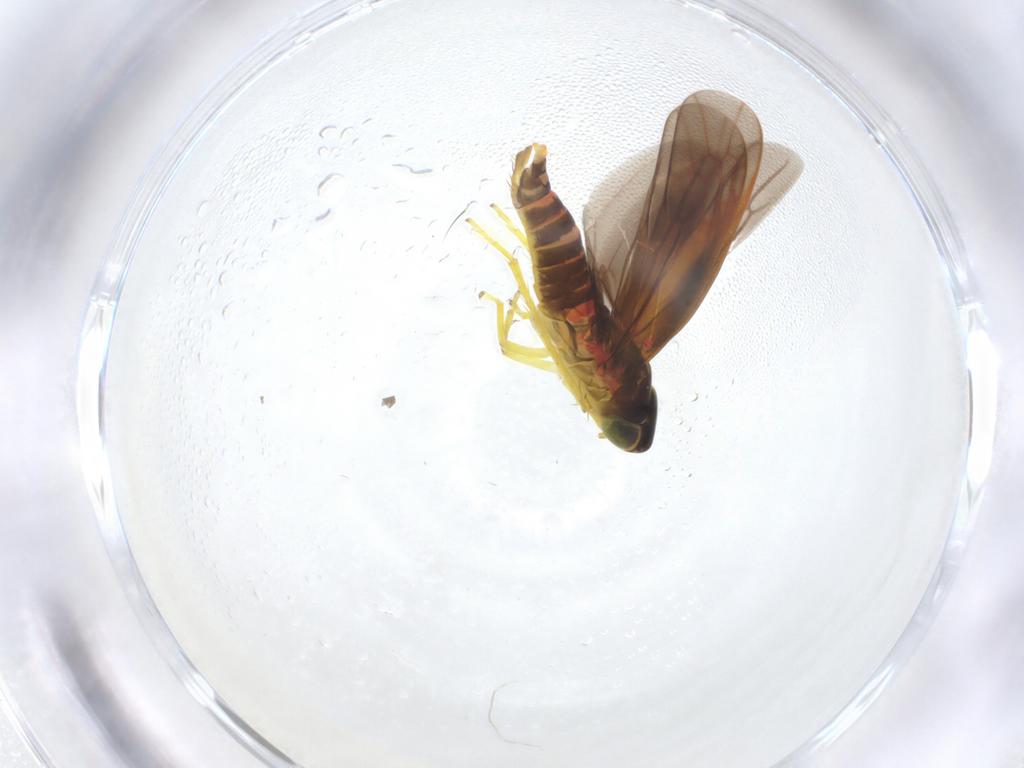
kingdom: Animalia
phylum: Arthropoda
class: Insecta
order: Hemiptera
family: Cicadellidae
